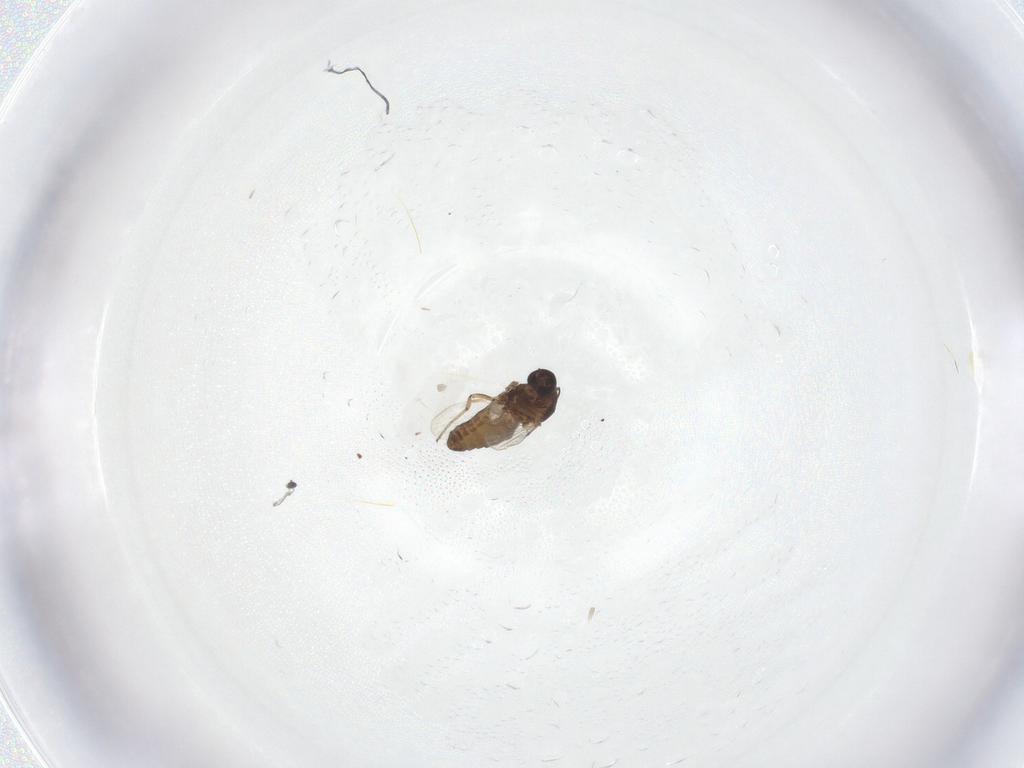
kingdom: Animalia
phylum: Arthropoda
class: Insecta
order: Diptera
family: Ceratopogonidae
